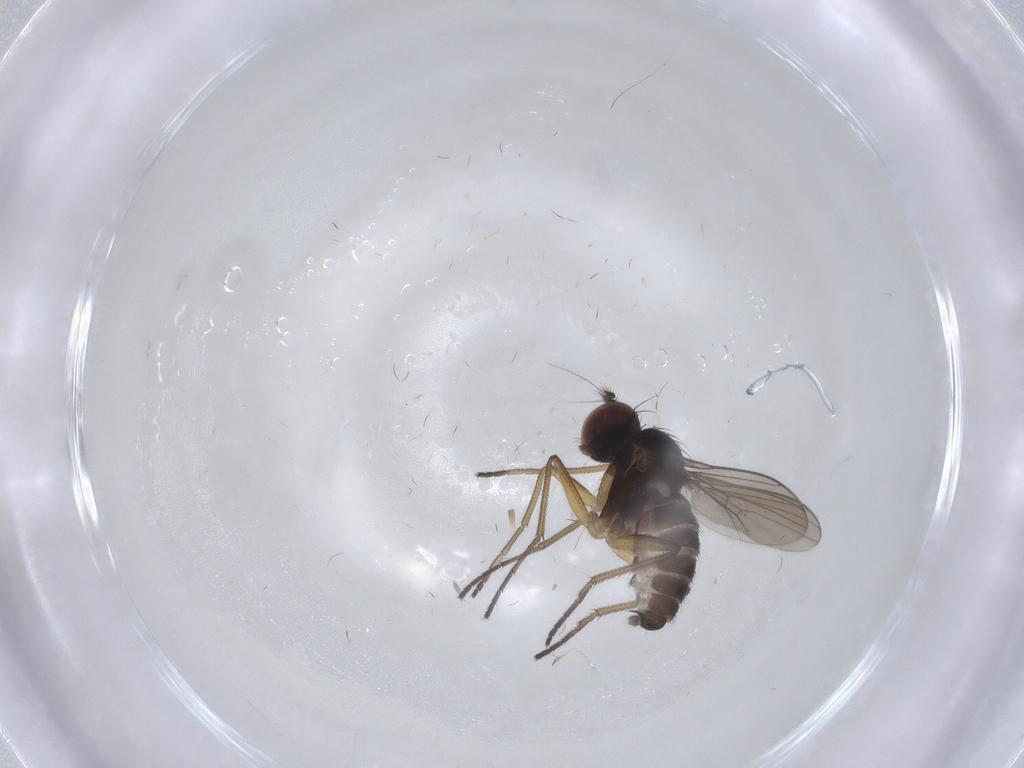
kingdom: Animalia
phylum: Arthropoda
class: Insecta
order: Diptera
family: Dolichopodidae
